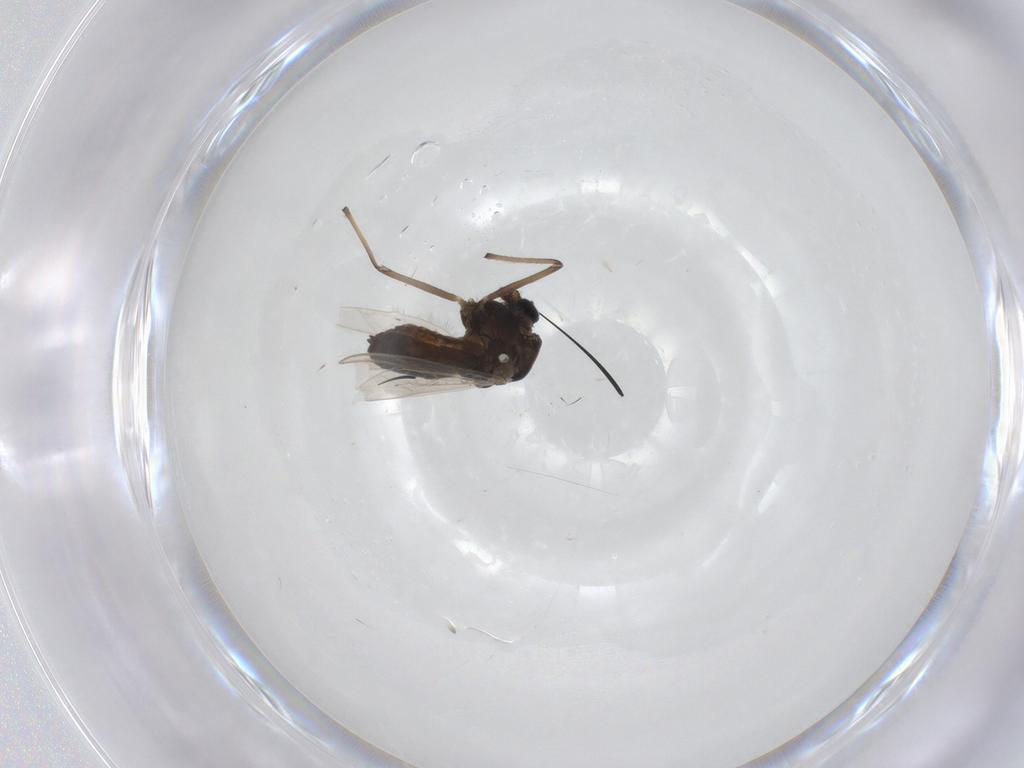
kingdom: Animalia
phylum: Arthropoda
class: Insecta
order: Diptera
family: Chironomidae
